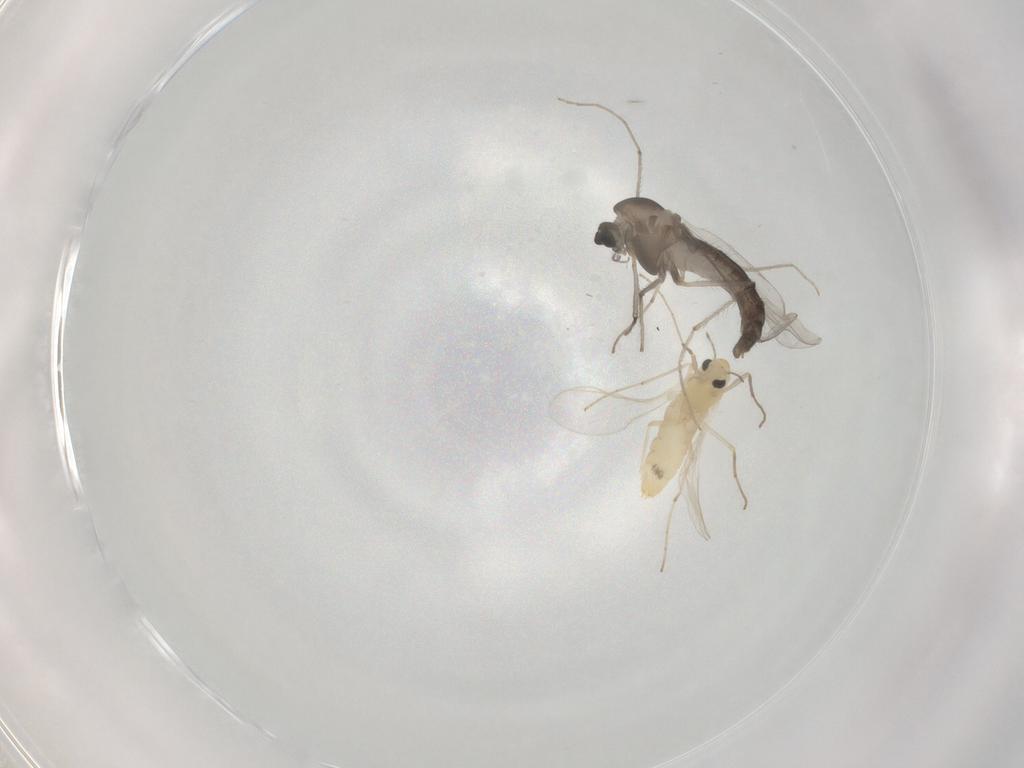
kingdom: Animalia
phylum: Arthropoda
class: Insecta
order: Diptera
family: Chironomidae
